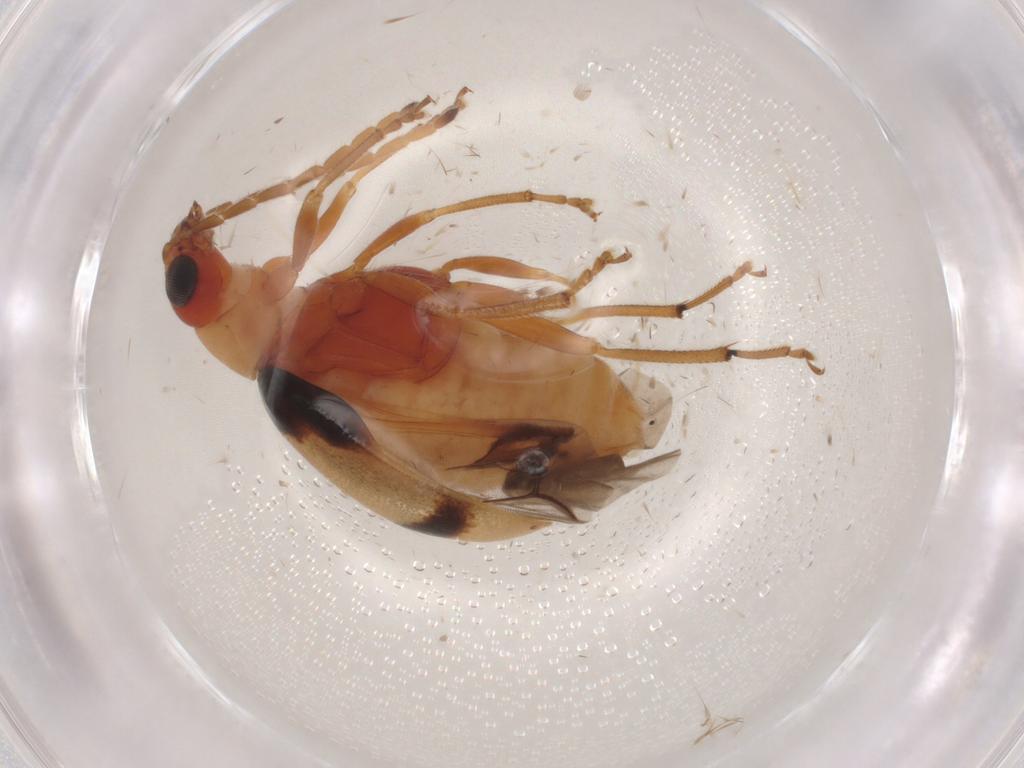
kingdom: Animalia
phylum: Arthropoda
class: Insecta
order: Coleoptera
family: Chrysomelidae
